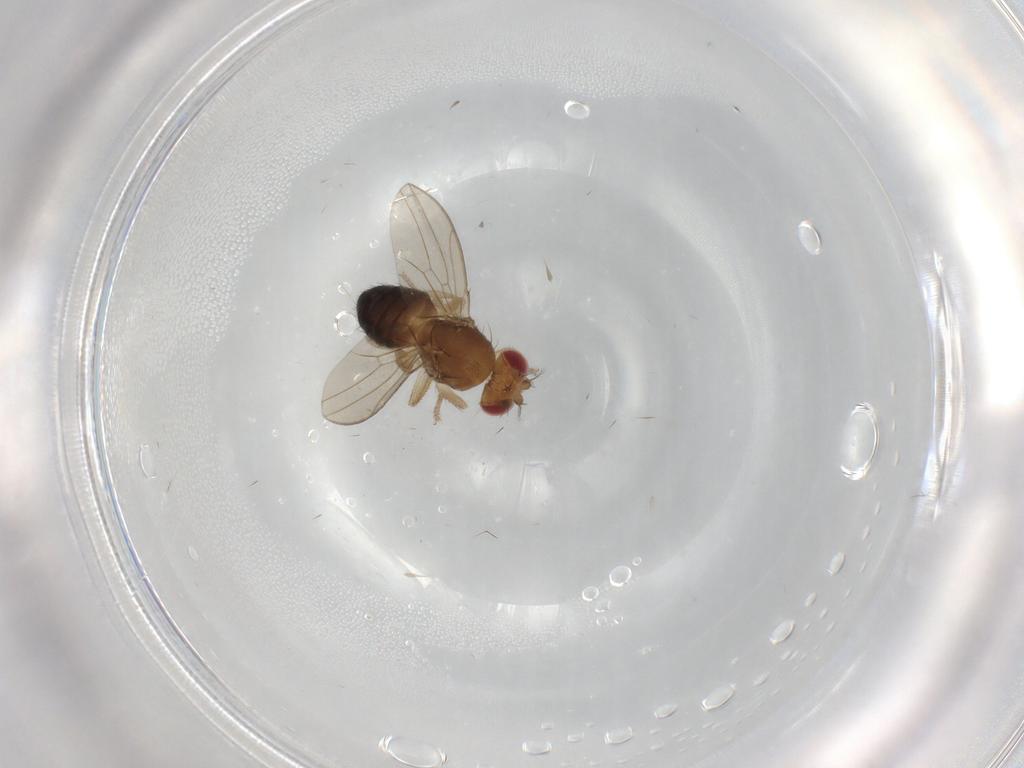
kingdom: Animalia
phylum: Arthropoda
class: Insecta
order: Diptera
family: Drosophilidae
